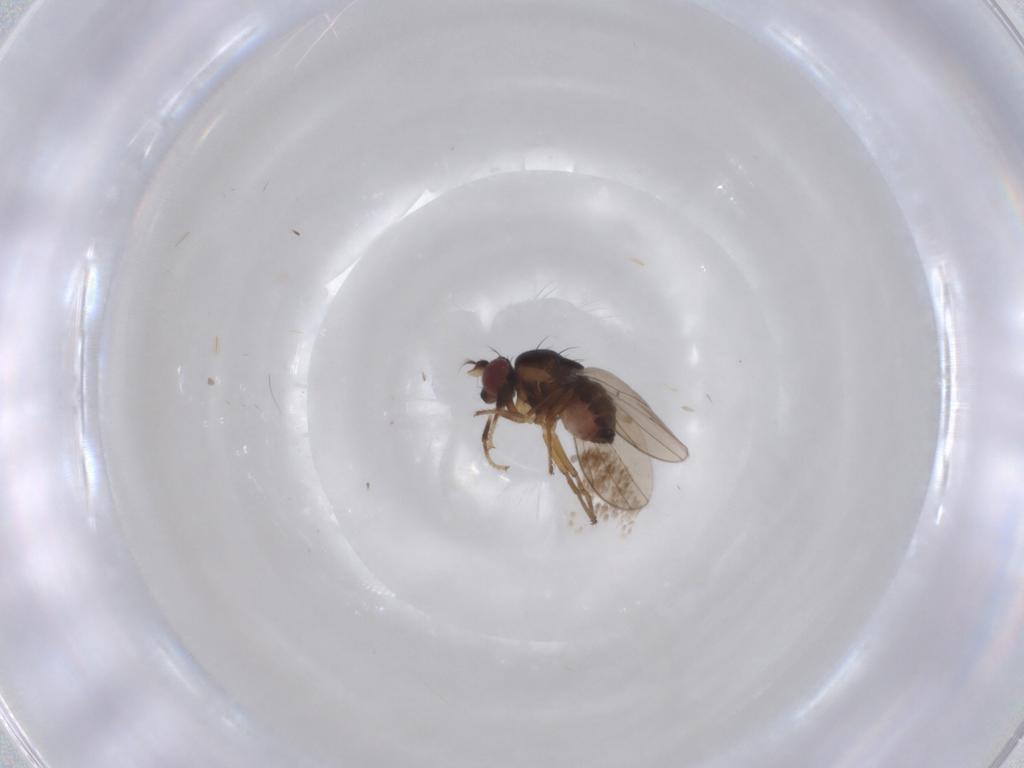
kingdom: Animalia
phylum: Arthropoda
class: Insecta
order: Diptera
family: Ephydridae
